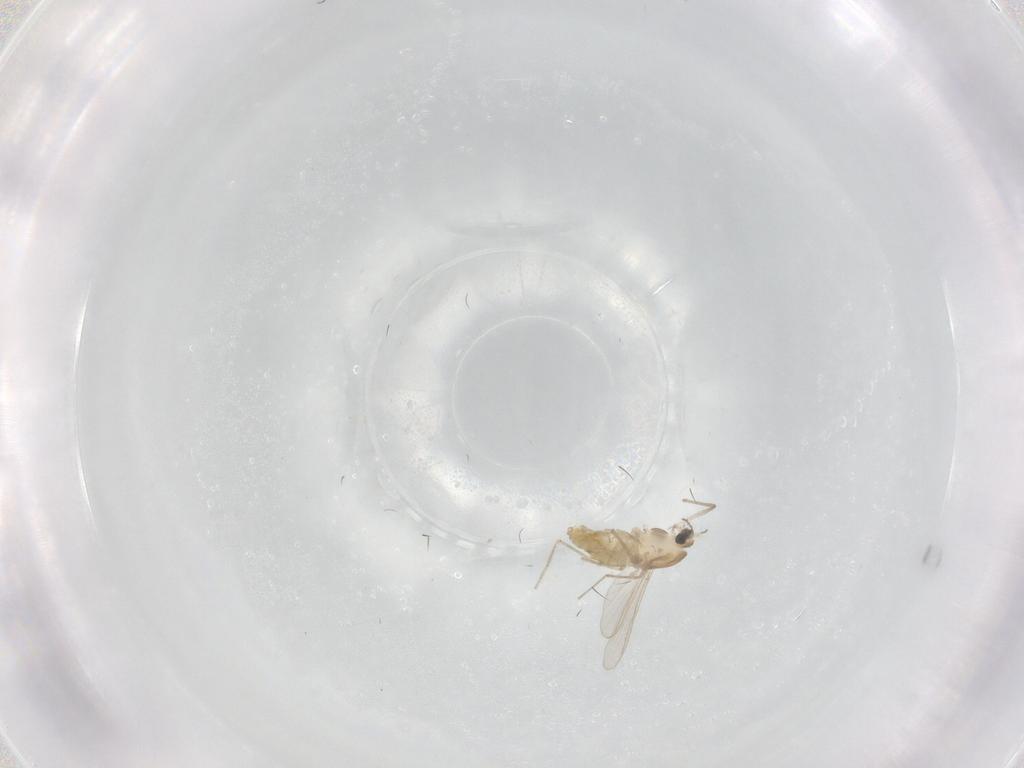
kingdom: Animalia
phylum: Arthropoda
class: Insecta
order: Diptera
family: Chironomidae
